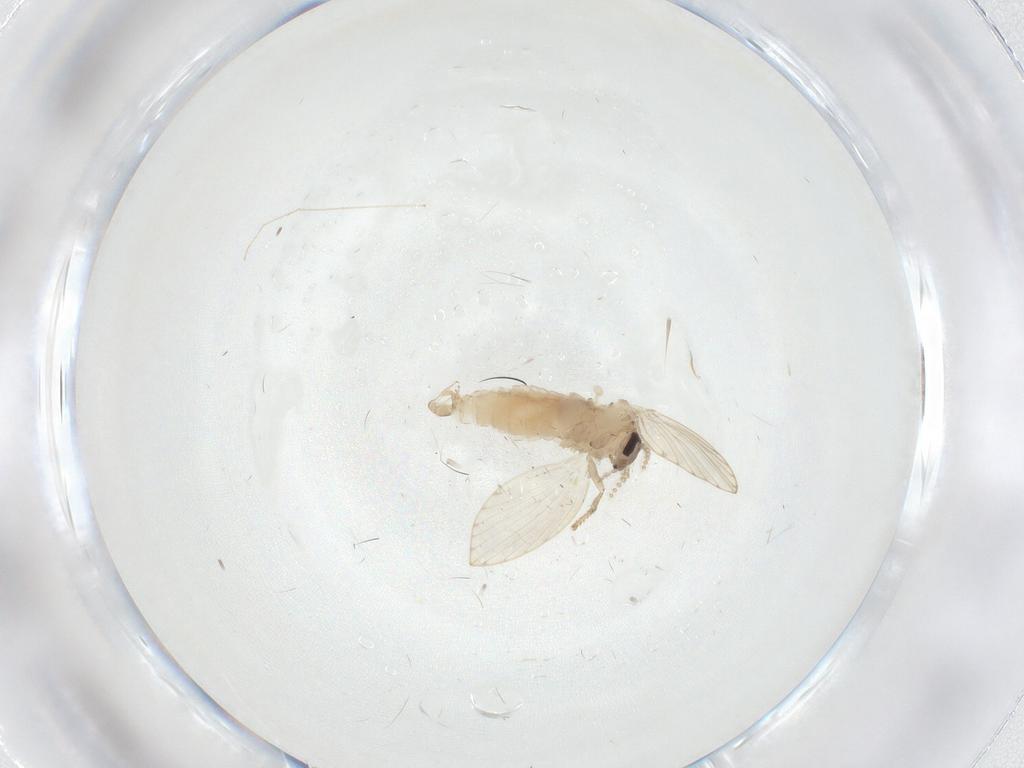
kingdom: Animalia
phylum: Arthropoda
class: Insecta
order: Diptera
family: Psychodidae
